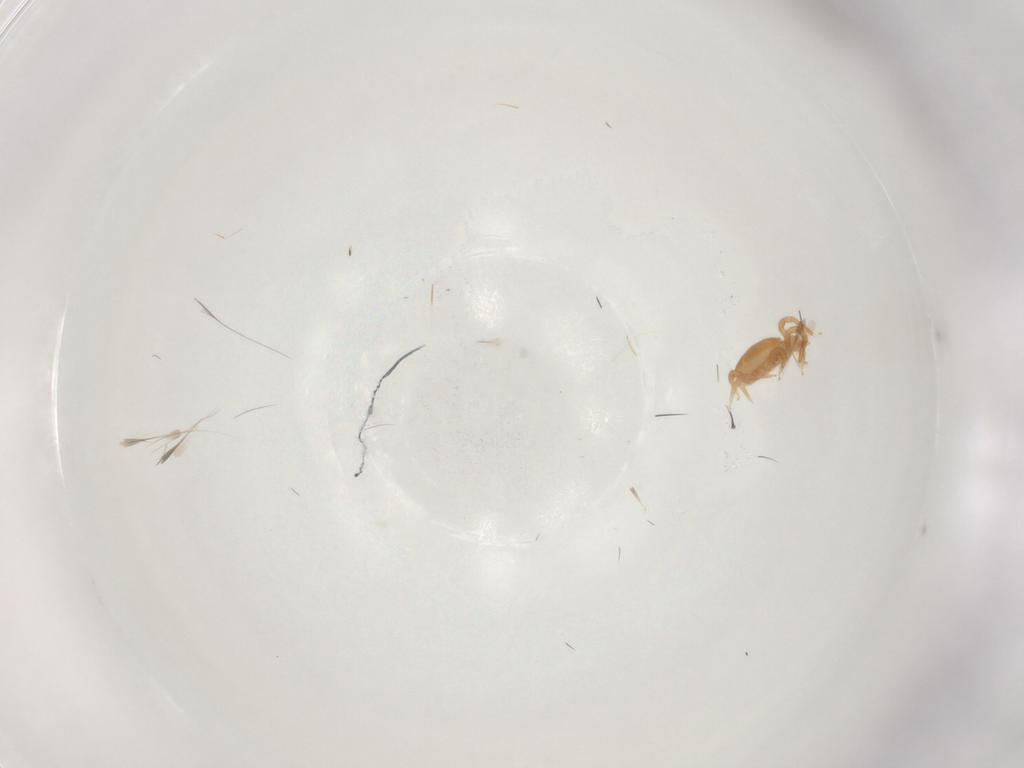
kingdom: Animalia
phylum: Arthropoda
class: Arachnida
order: Mesostigmata
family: Parasitidae
